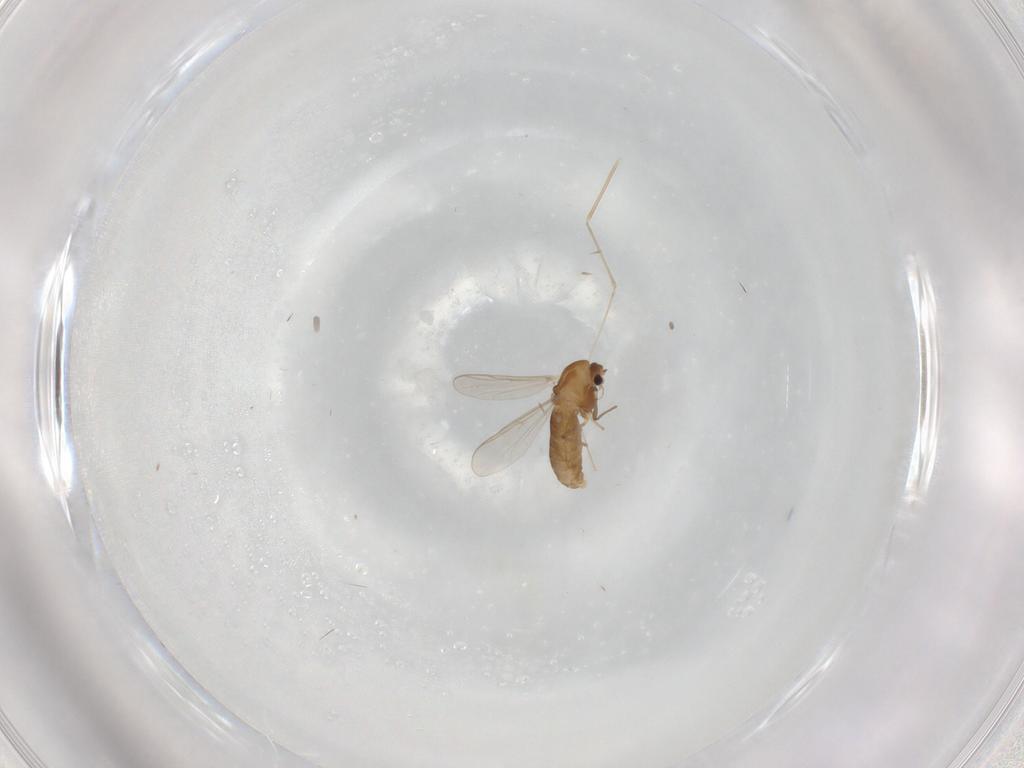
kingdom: Animalia
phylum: Arthropoda
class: Insecta
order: Diptera
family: Chironomidae
